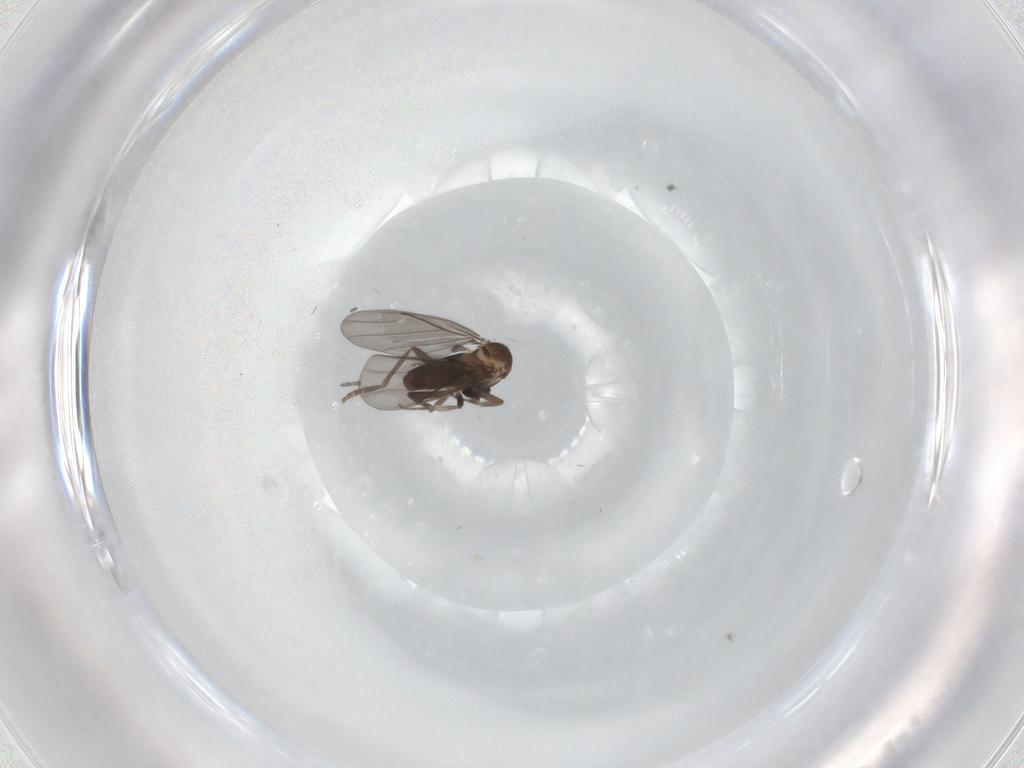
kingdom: Animalia
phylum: Arthropoda
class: Insecta
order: Diptera
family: Phoridae
